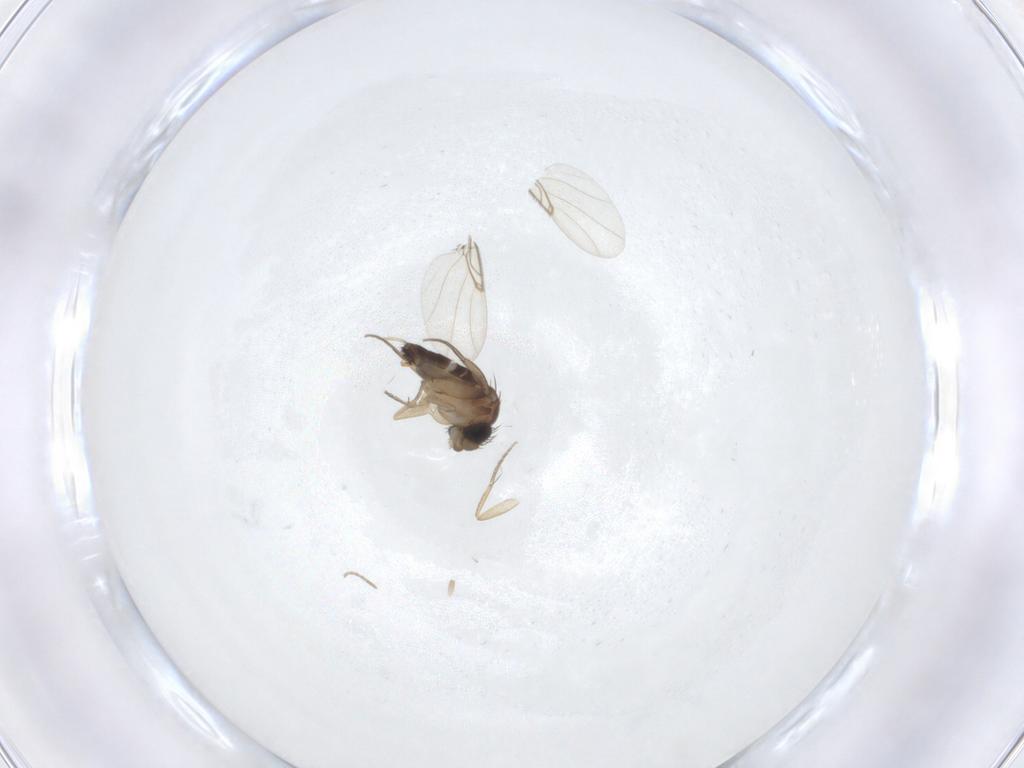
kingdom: Animalia
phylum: Arthropoda
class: Insecta
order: Diptera
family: Phoridae
